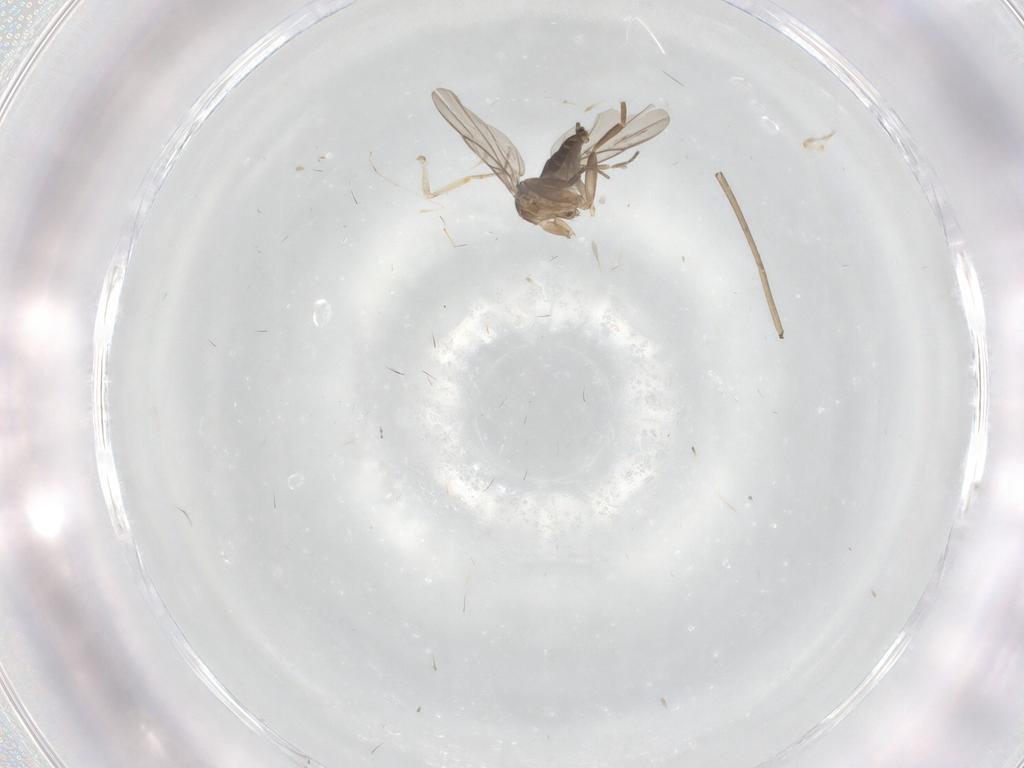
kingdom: Animalia
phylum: Arthropoda
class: Insecta
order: Diptera
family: Ceratopogonidae
